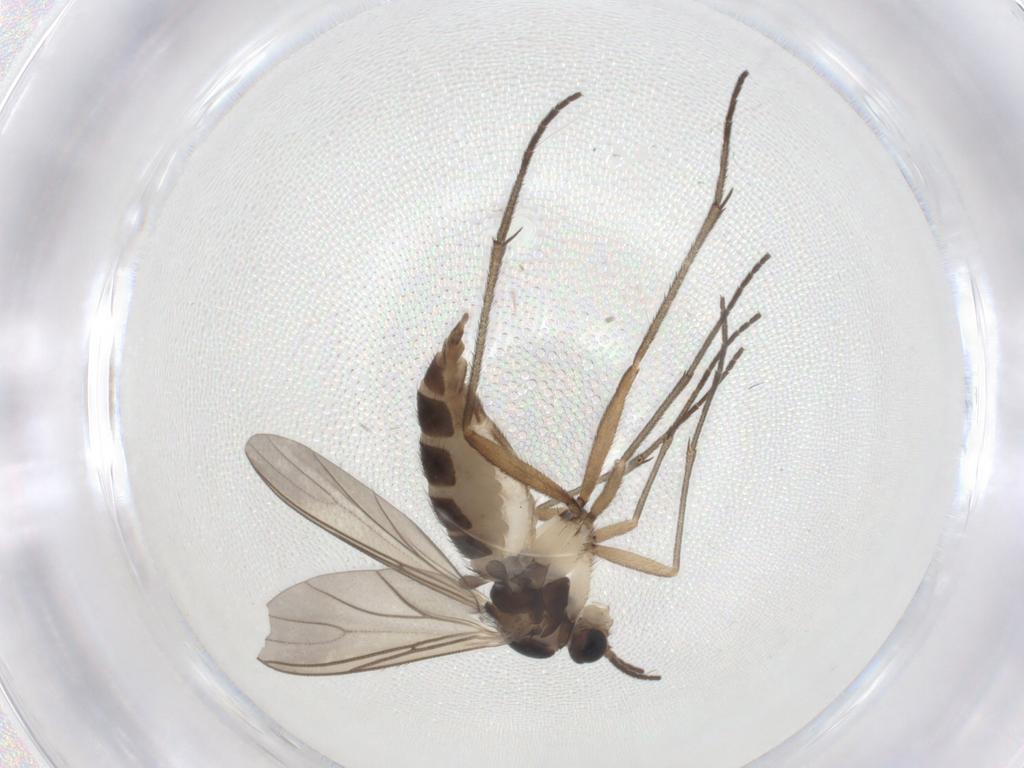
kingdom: Animalia
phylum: Arthropoda
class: Insecta
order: Diptera
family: Sciaridae
